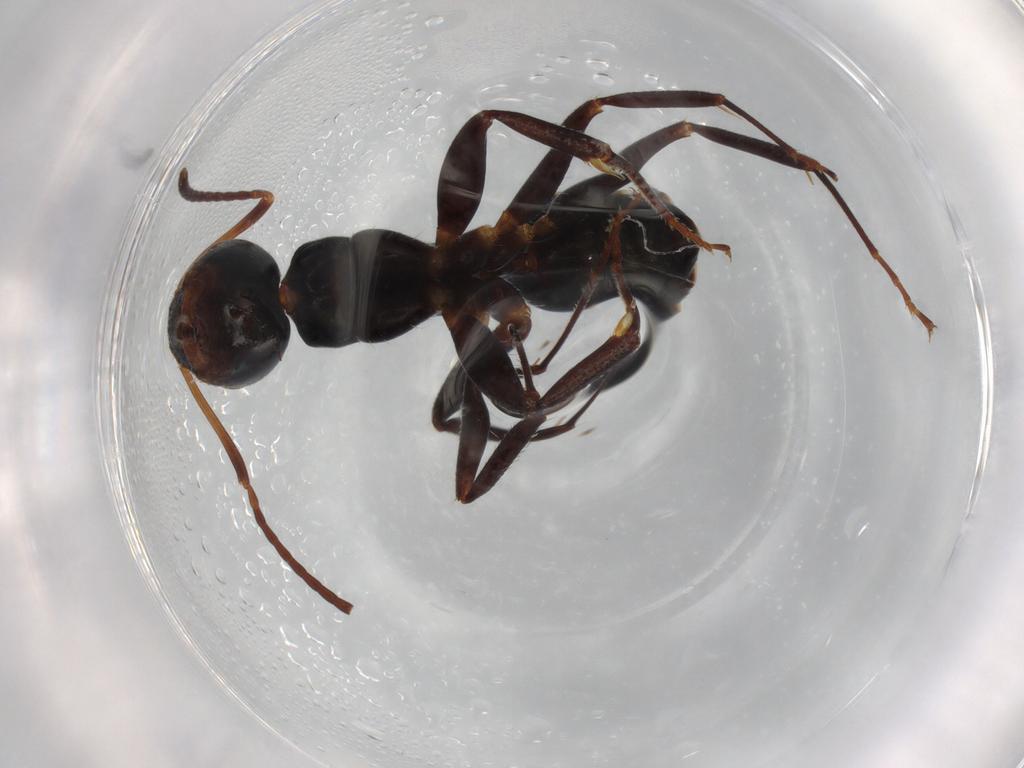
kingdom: Animalia
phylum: Arthropoda
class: Insecta
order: Hymenoptera
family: Formicidae
